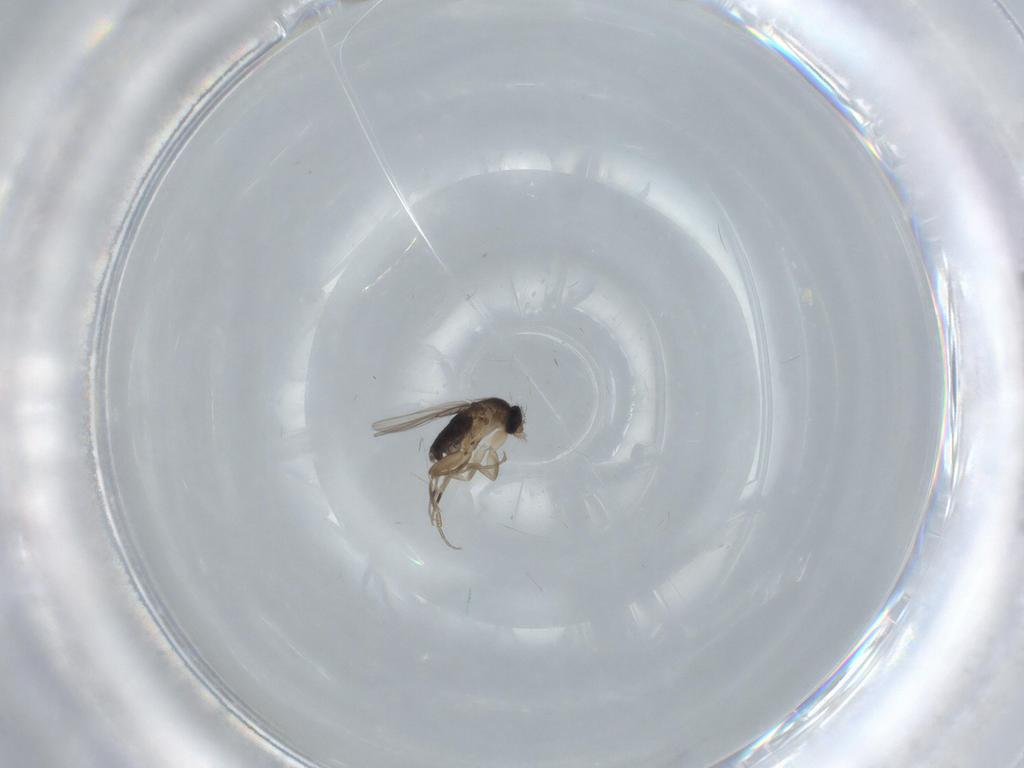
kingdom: Animalia
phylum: Arthropoda
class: Insecta
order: Diptera
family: Phoridae
